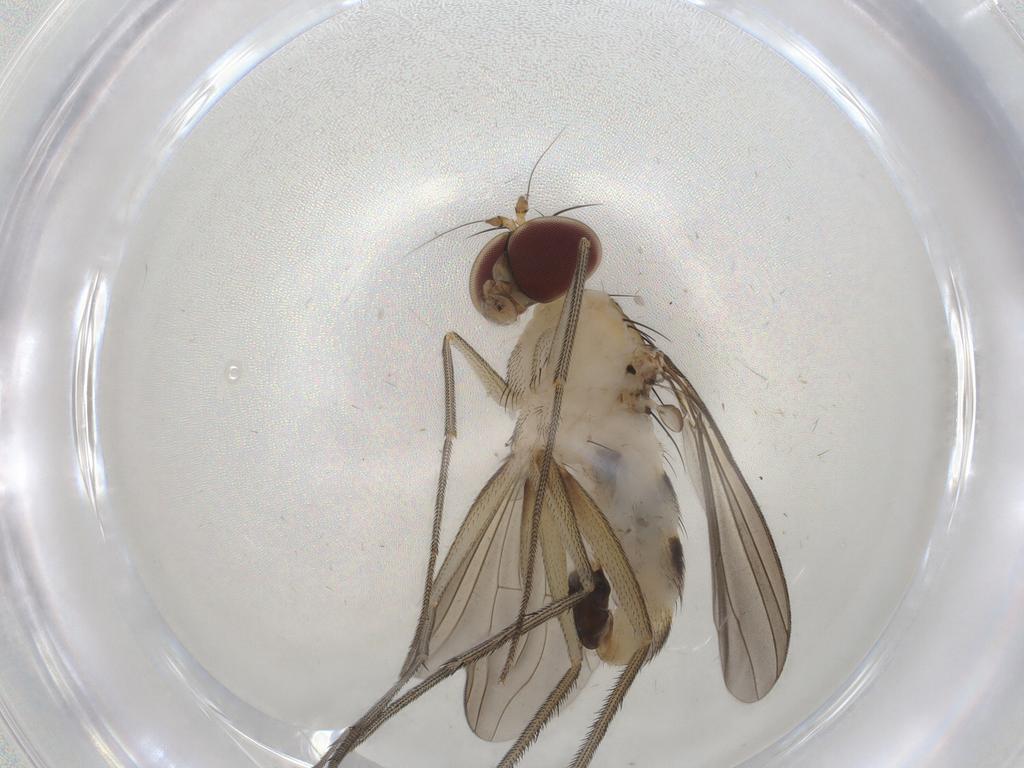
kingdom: Animalia
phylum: Arthropoda
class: Insecta
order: Diptera
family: Dolichopodidae
